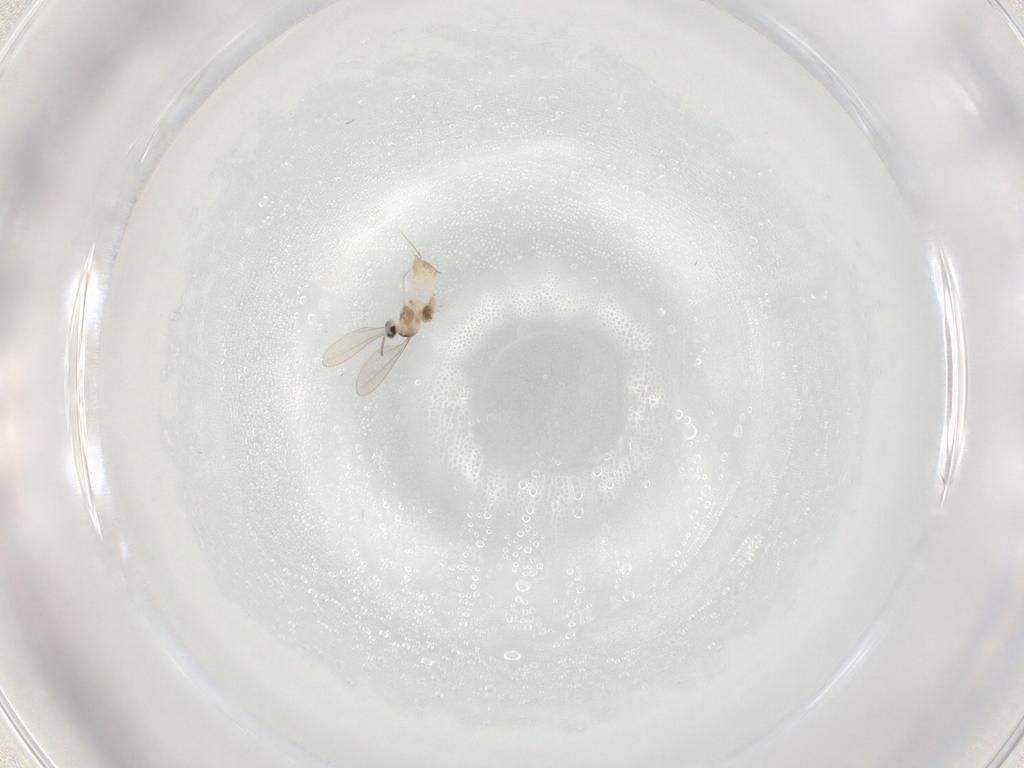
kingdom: Animalia
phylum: Arthropoda
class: Insecta
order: Diptera
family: Cecidomyiidae
